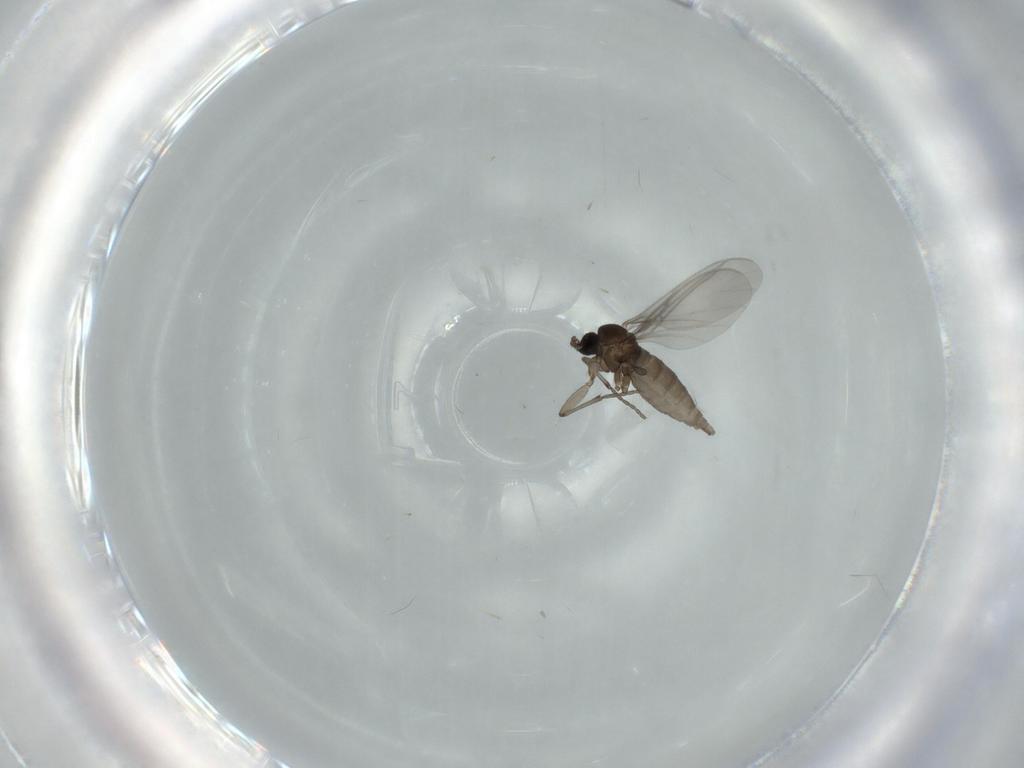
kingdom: Animalia
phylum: Arthropoda
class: Insecta
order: Diptera
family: Sciaridae
